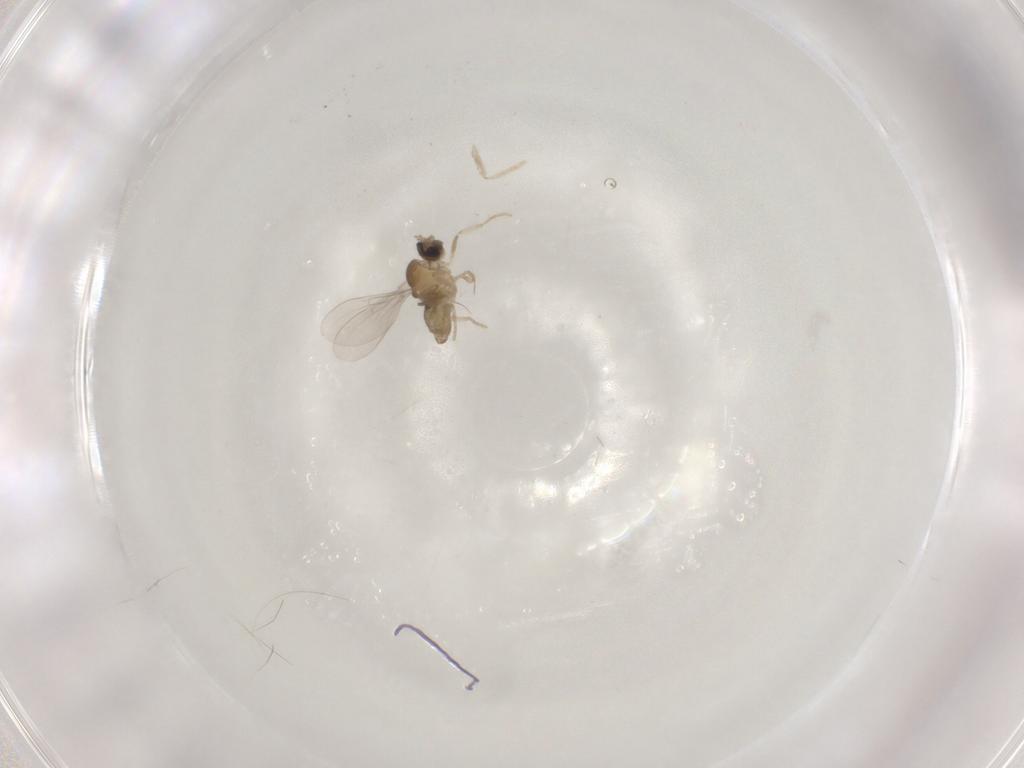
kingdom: Animalia
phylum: Arthropoda
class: Insecta
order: Diptera
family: Cecidomyiidae
